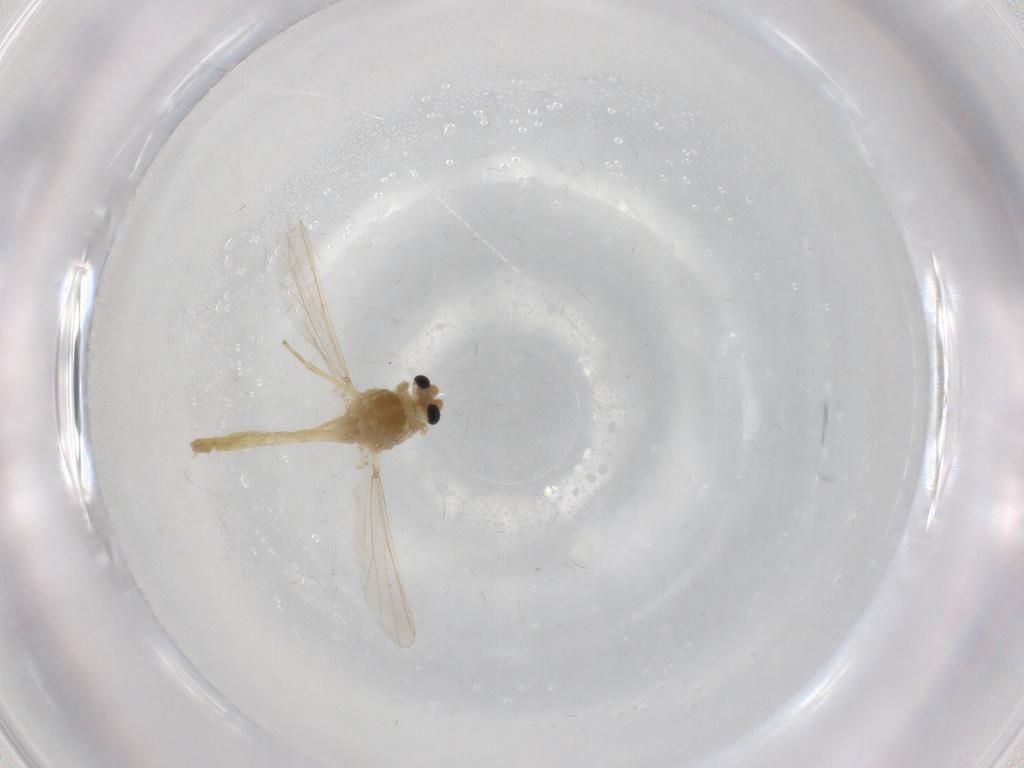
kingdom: Animalia
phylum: Arthropoda
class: Insecta
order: Diptera
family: Chironomidae
